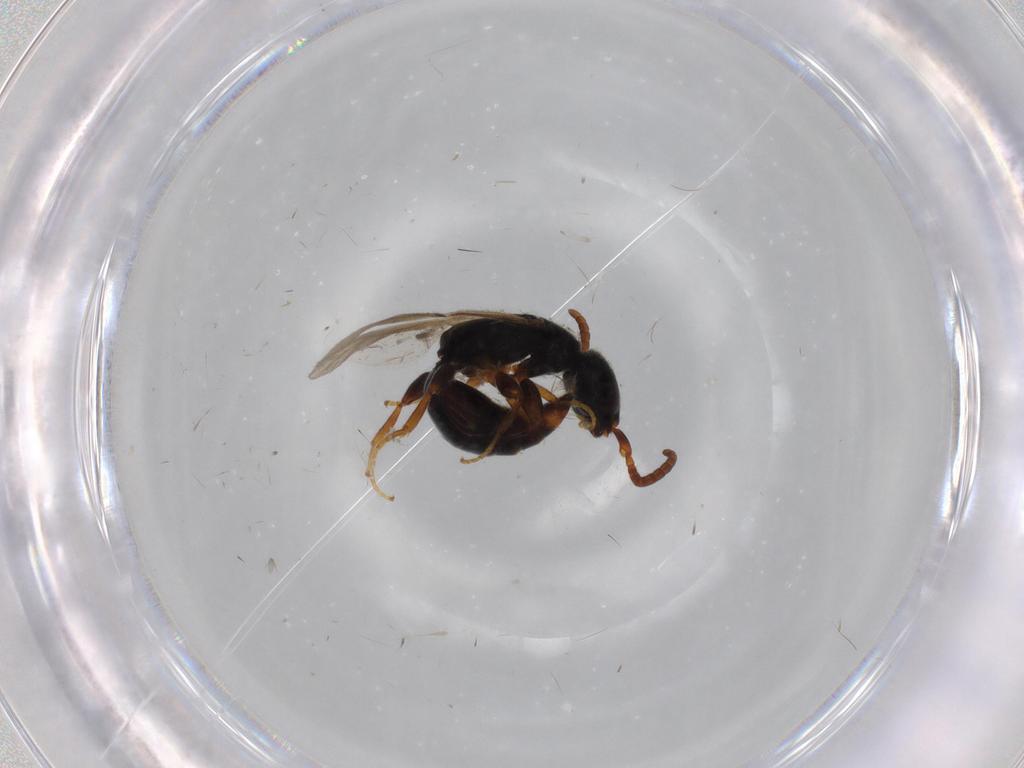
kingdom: Animalia
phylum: Arthropoda
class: Insecta
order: Hymenoptera
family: Bethylidae
